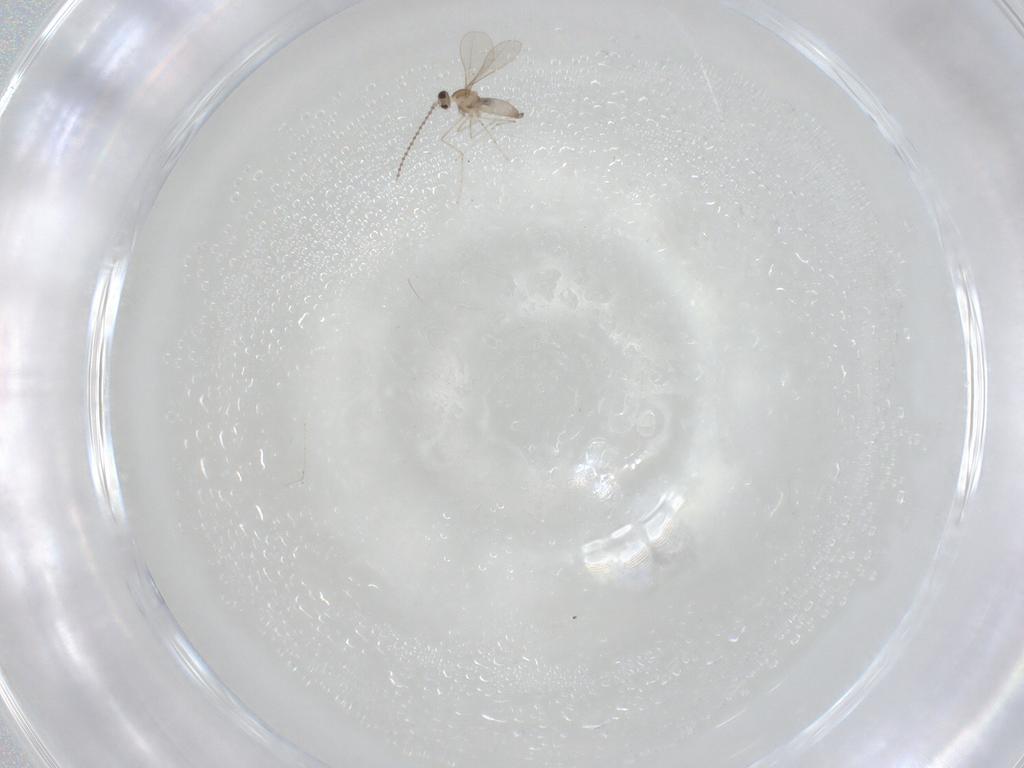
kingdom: Animalia
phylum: Arthropoda
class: Insecta
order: Diptera
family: Cecidomyiidae
